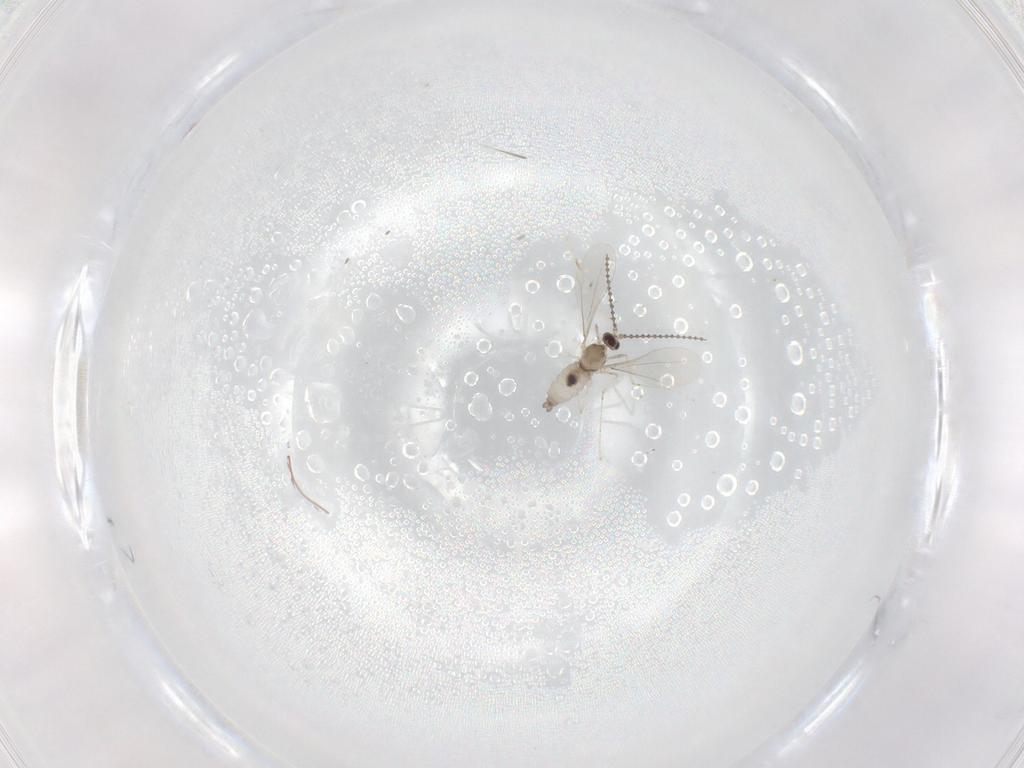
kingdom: Animalia
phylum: Arthropoda
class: Insecta
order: Diptera
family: Cecidomyiidae
